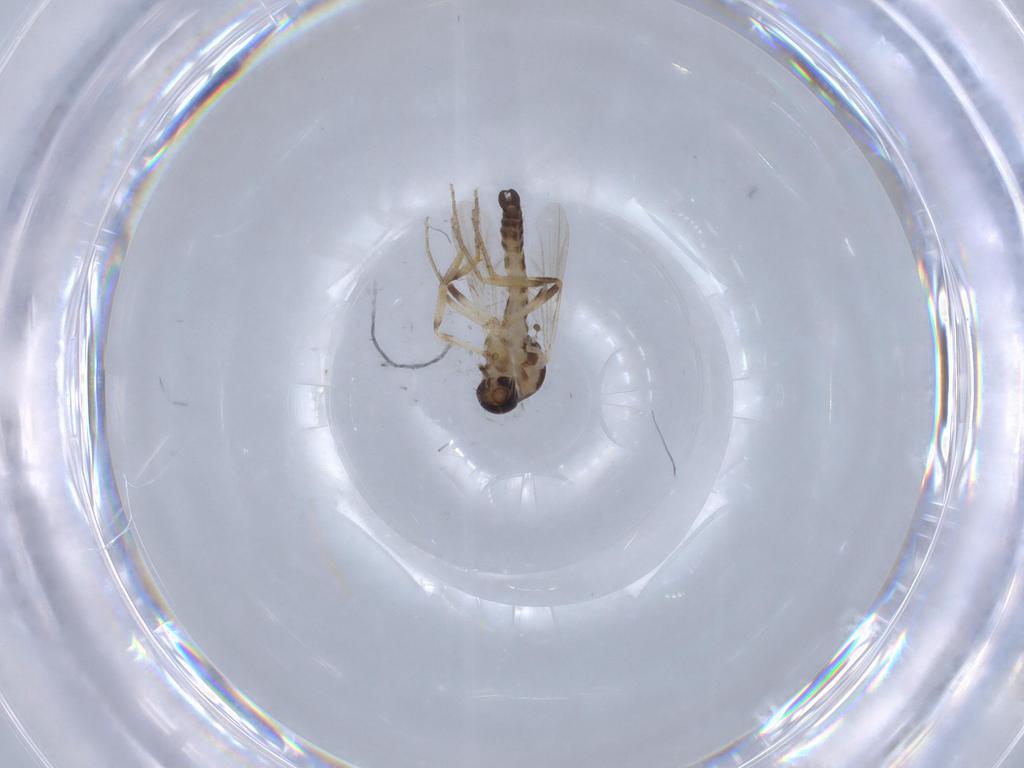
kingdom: Animalia
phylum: Arthropoda
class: Insecta
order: Diptera
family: Ceratopogonidae
